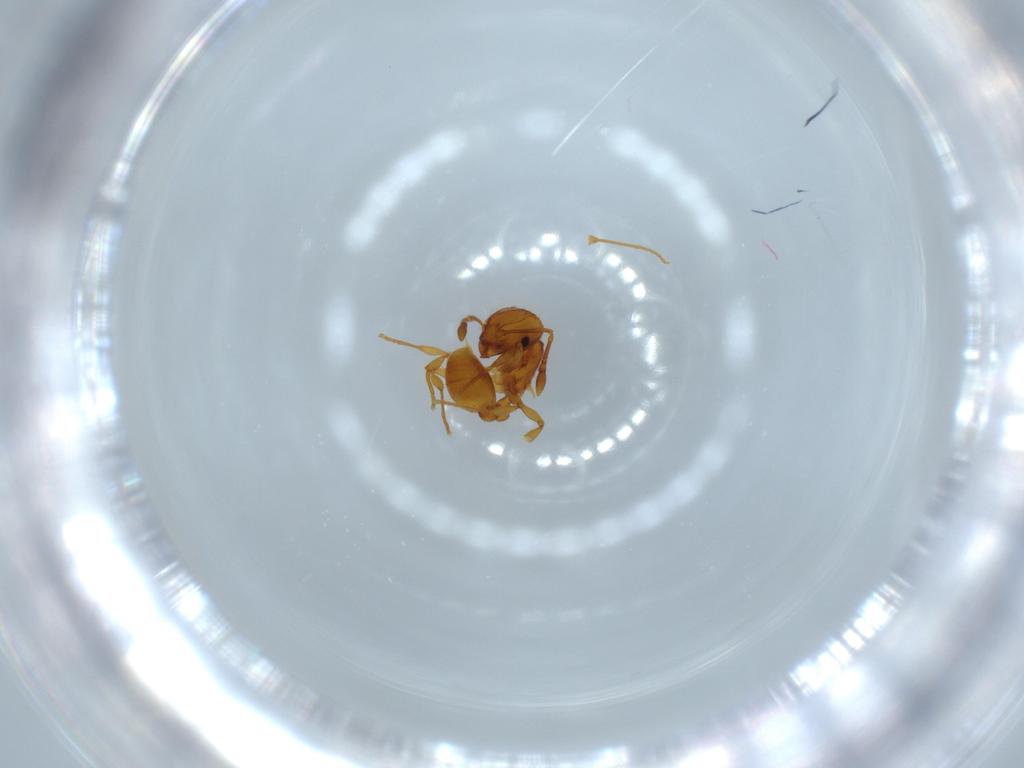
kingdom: Animalia
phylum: Arthropoda
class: Insecta
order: Hymenoptera
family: Formicidae
